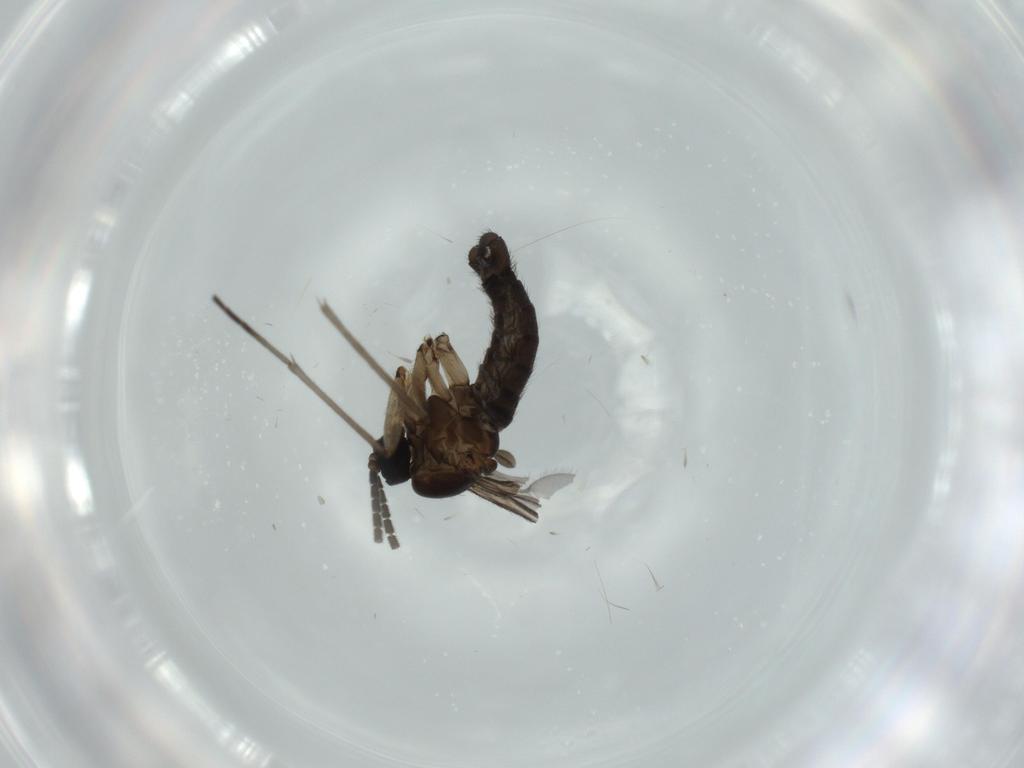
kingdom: Animalia
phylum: Arthropoda
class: Insecta
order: Diptera
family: Sciaridae
